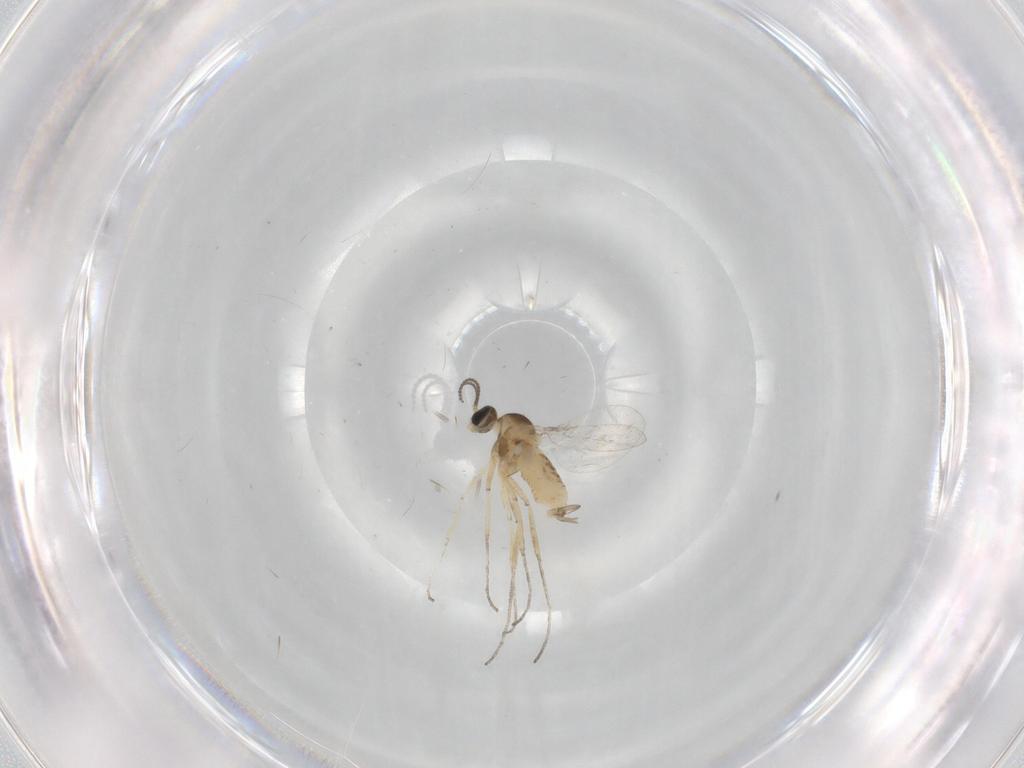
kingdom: Animalia
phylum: Arthropoda
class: Insecta
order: Diptera
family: Cecidomyiidae
